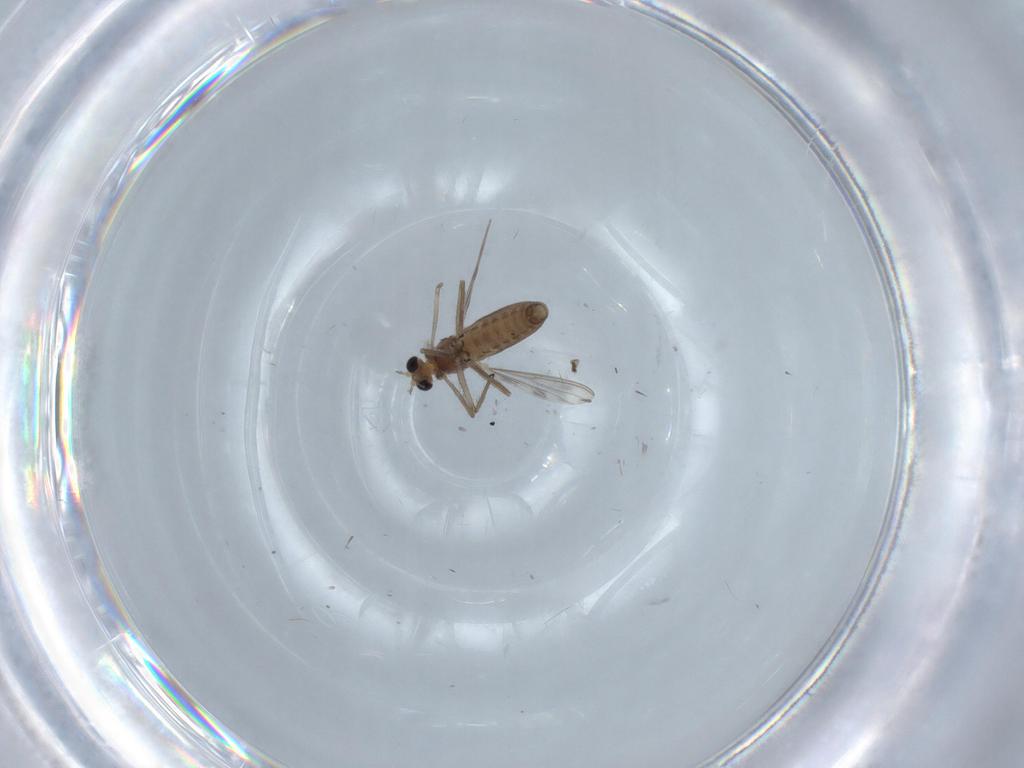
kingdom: Animalia
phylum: Arthropoda
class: Insecta
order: Diptera
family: Chironomidae
